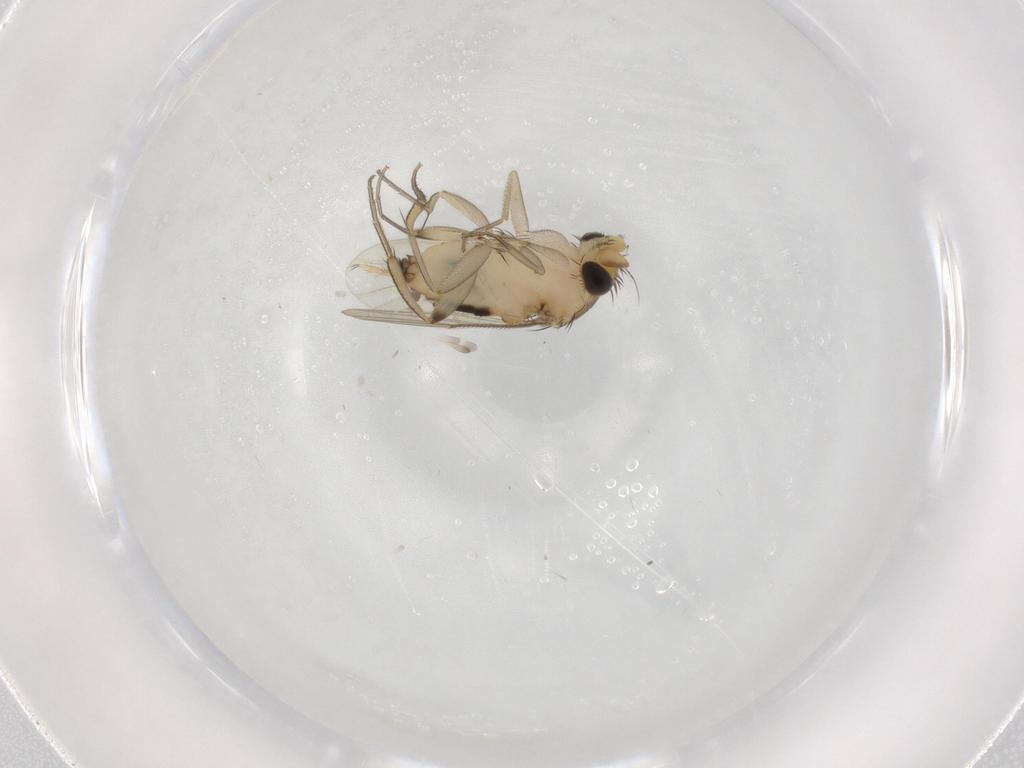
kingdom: Animalia
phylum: Arthropoda
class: Insecta
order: Diptera
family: Phoridae
